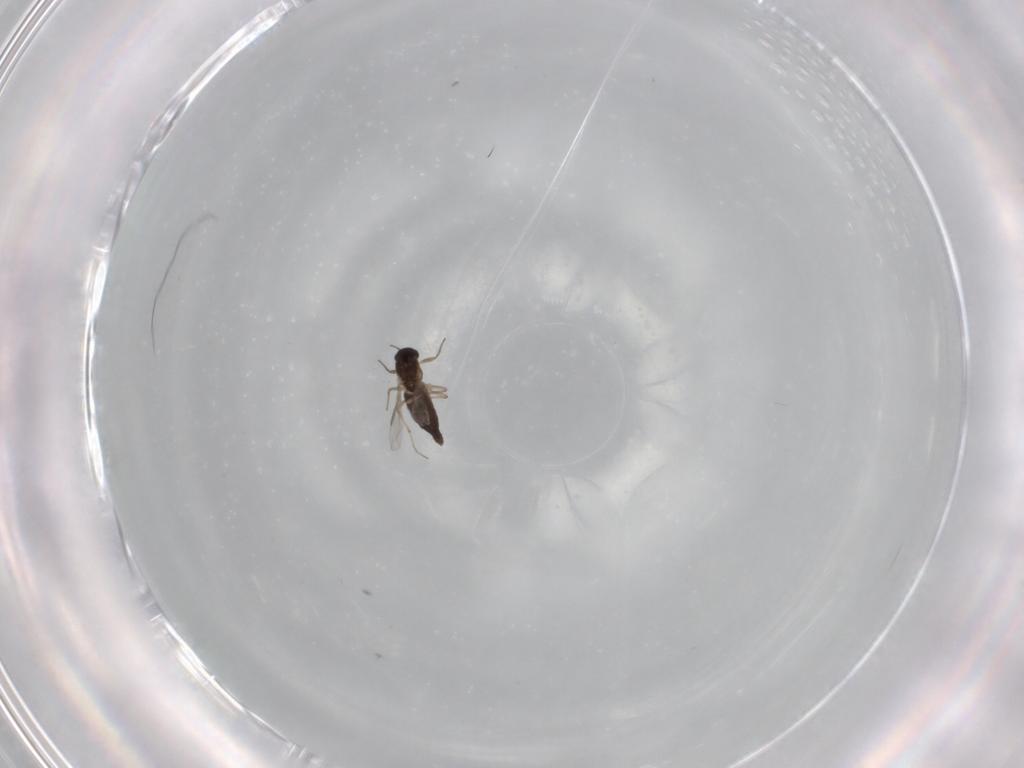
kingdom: Animalia
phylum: Arthropoda
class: Insecta
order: Diptera
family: Chironomidae
